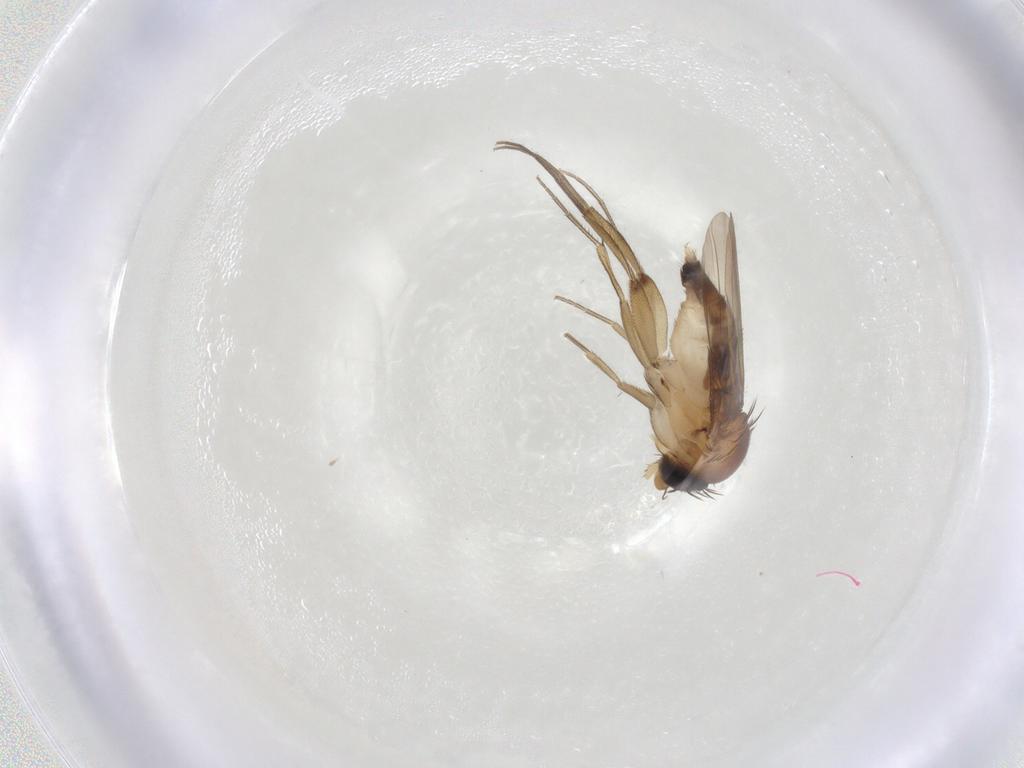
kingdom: Animalia
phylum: Arthropoda
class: Insecta
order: Diptera
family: Phoridae
